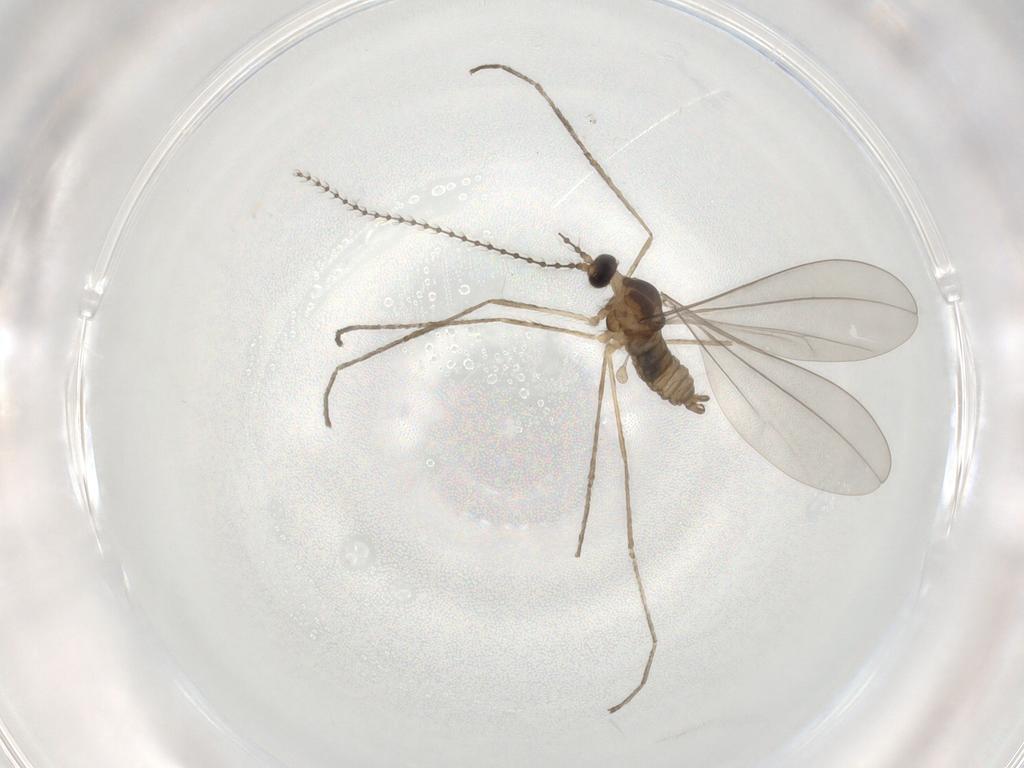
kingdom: Animalia
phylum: Arthropoda
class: Insecta
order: Diptera
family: Cecidomyiidae
